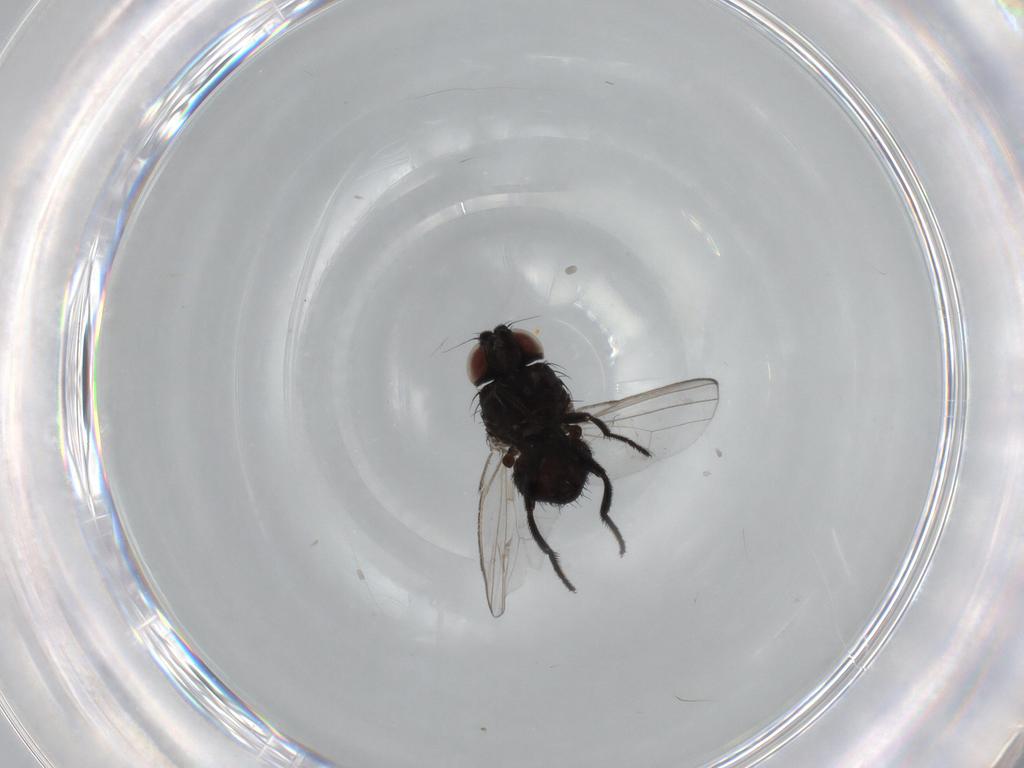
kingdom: Animalia
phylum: Arthropoda
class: Insecta
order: Diptera
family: Milichiidae
